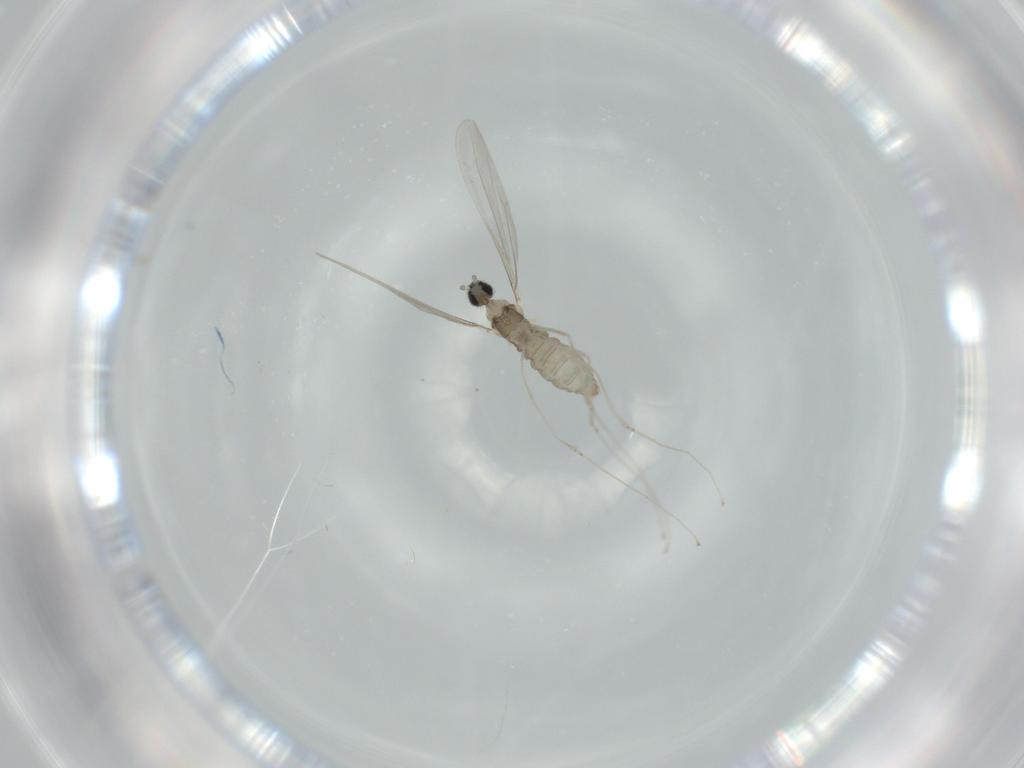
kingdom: Animalia
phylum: Arthropoda
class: Insecta
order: Diptera
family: Cecidomyiidae
